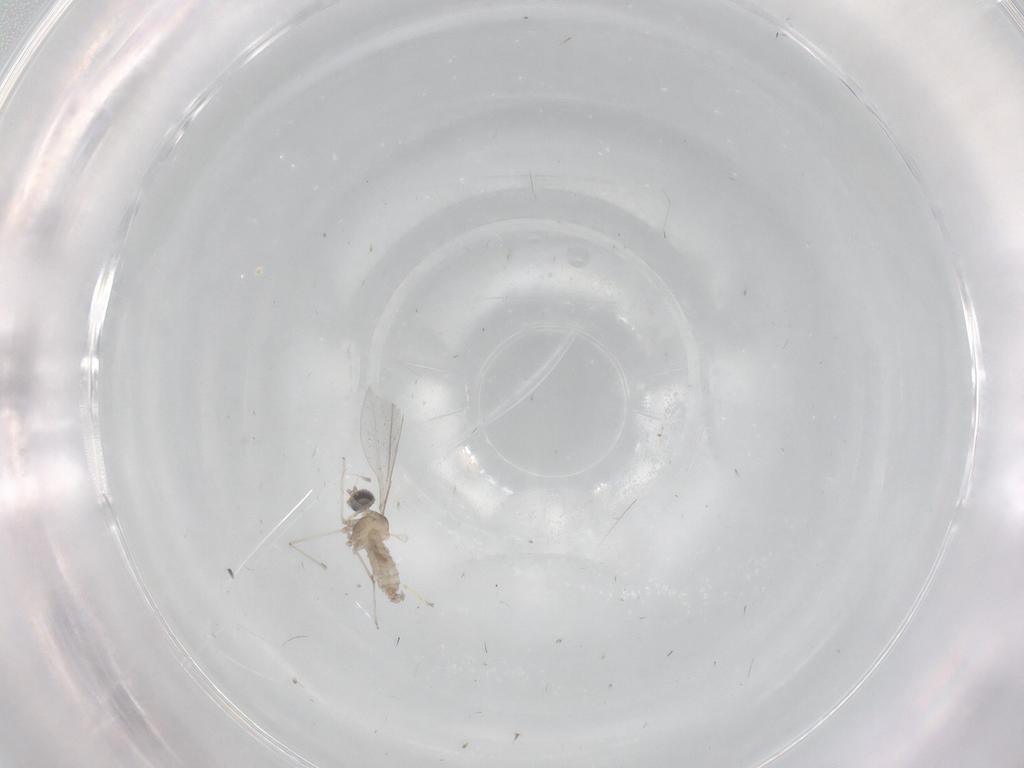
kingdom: Animalia
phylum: Arthropoda
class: Insecta
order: Diptera
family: Cecidomyiidae
